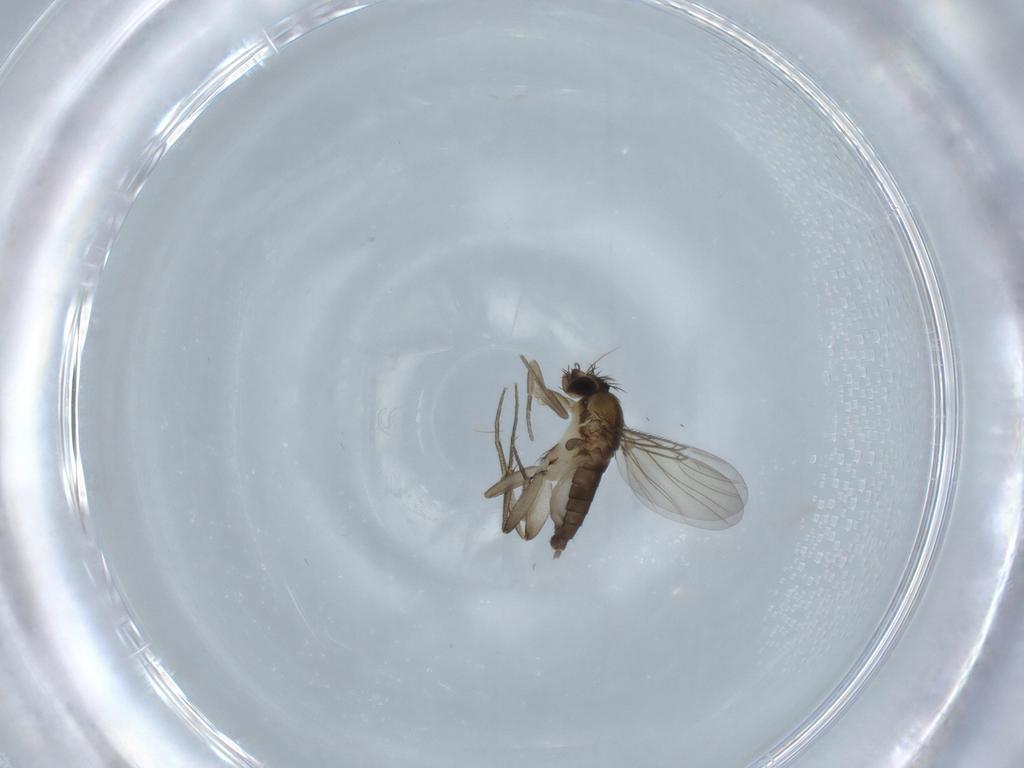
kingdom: Animalia
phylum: Arthropoda
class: Insecta
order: Diptera
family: Phoridae
